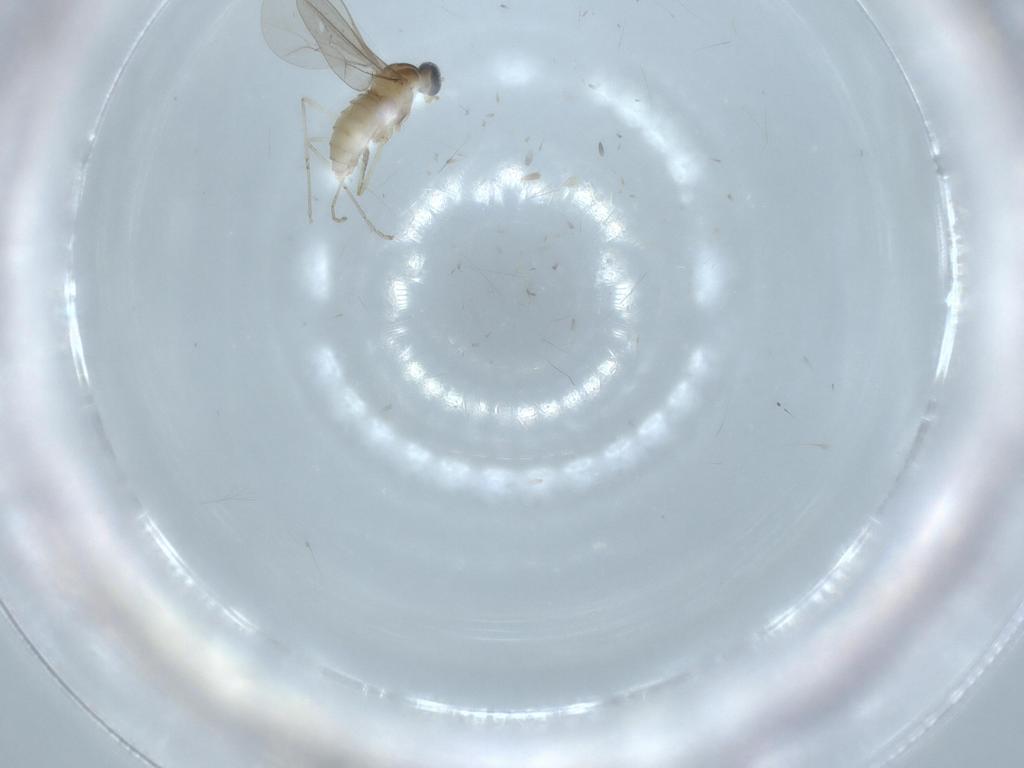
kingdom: Animalia
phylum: Arthropoda
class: Insecta
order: Diptera
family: Cecidomyiidae
